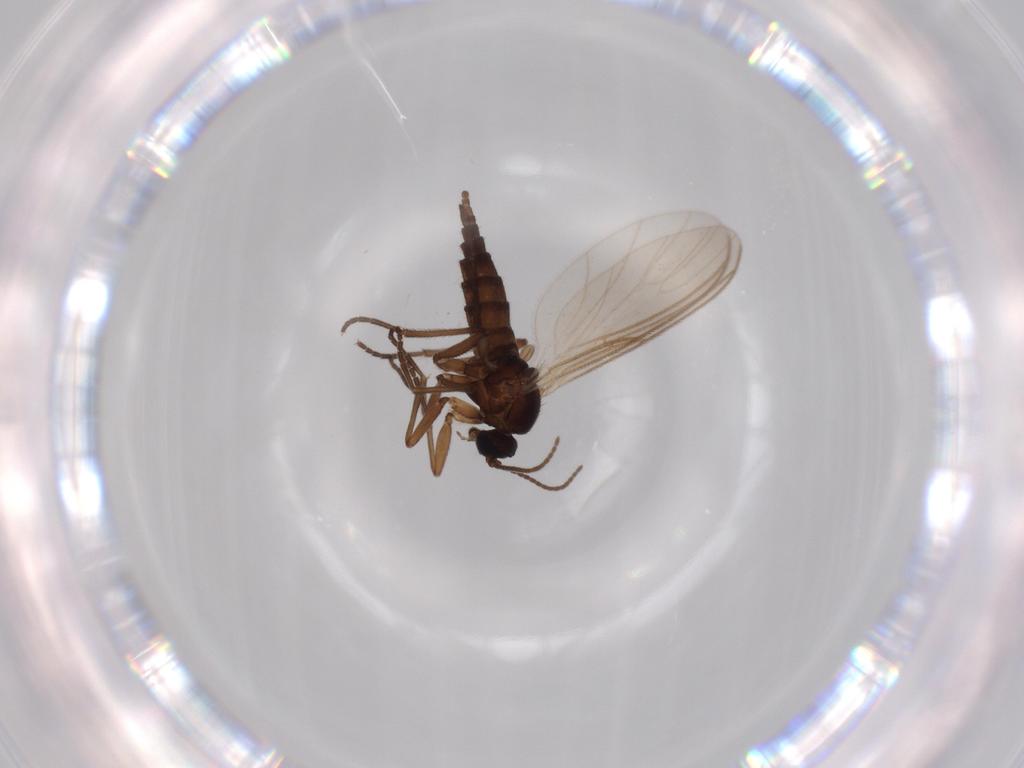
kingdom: Animalia
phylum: Arthropoda
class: Insecta
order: Diptera
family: Sciaridae
